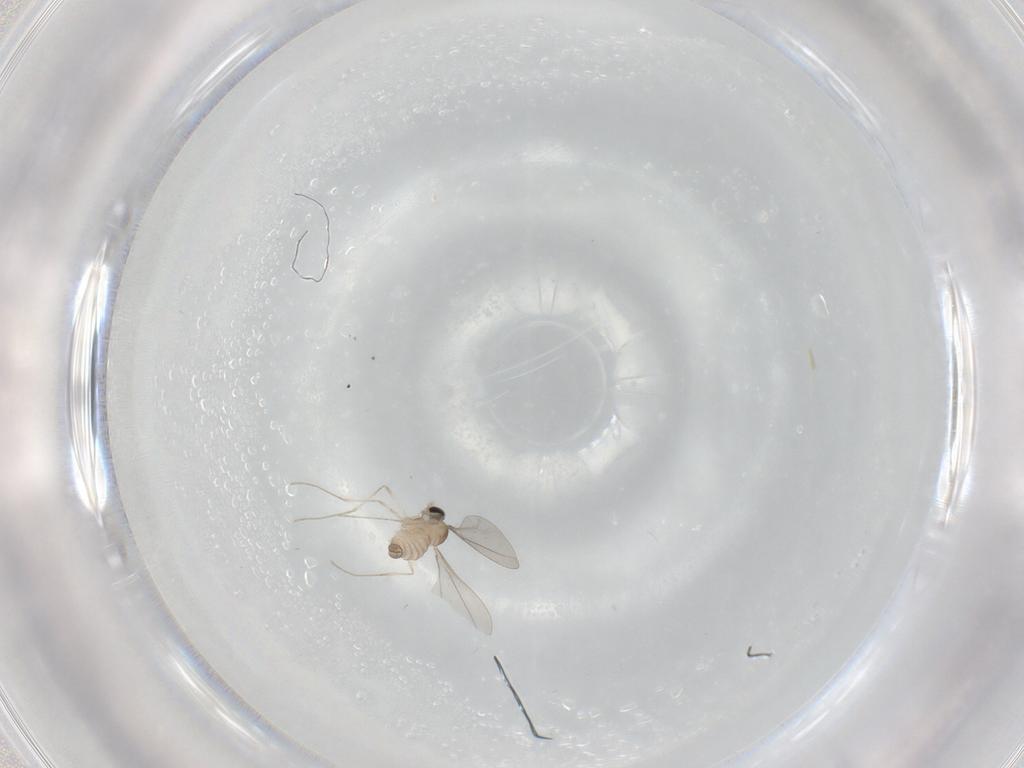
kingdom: Animalia
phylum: Arthropoda
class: Insecta
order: Diptera
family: Cecidomyiidae
